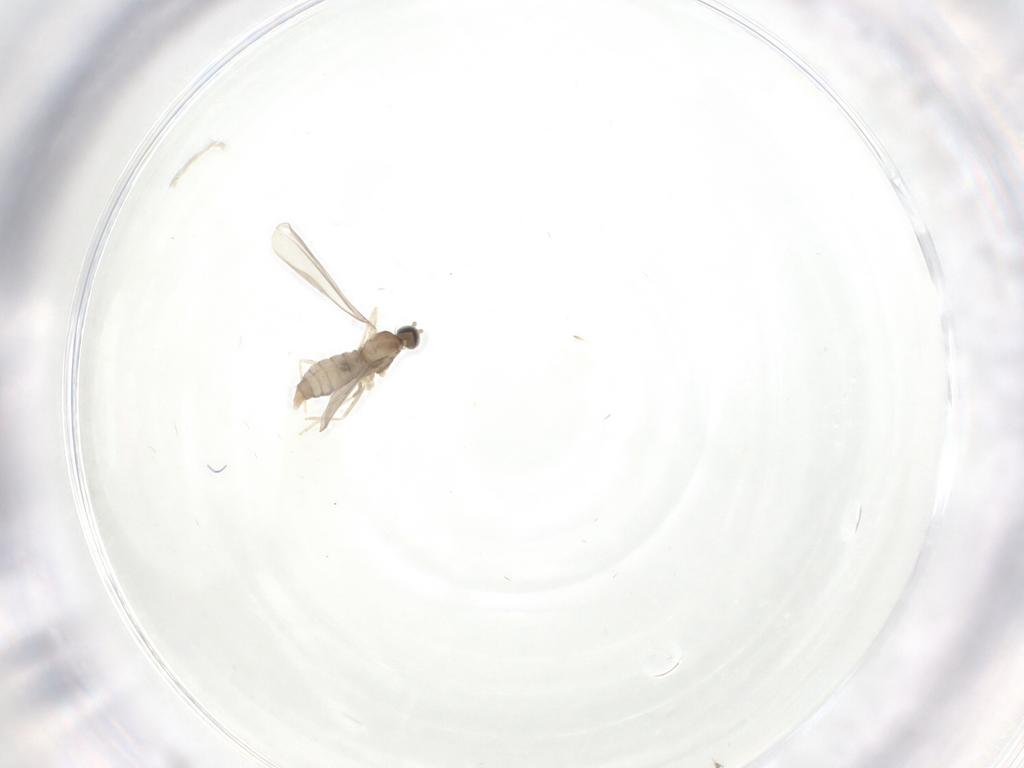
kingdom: Animalia
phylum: Arthropoda
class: Insecta
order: Diptera
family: Cecidomyiidae
